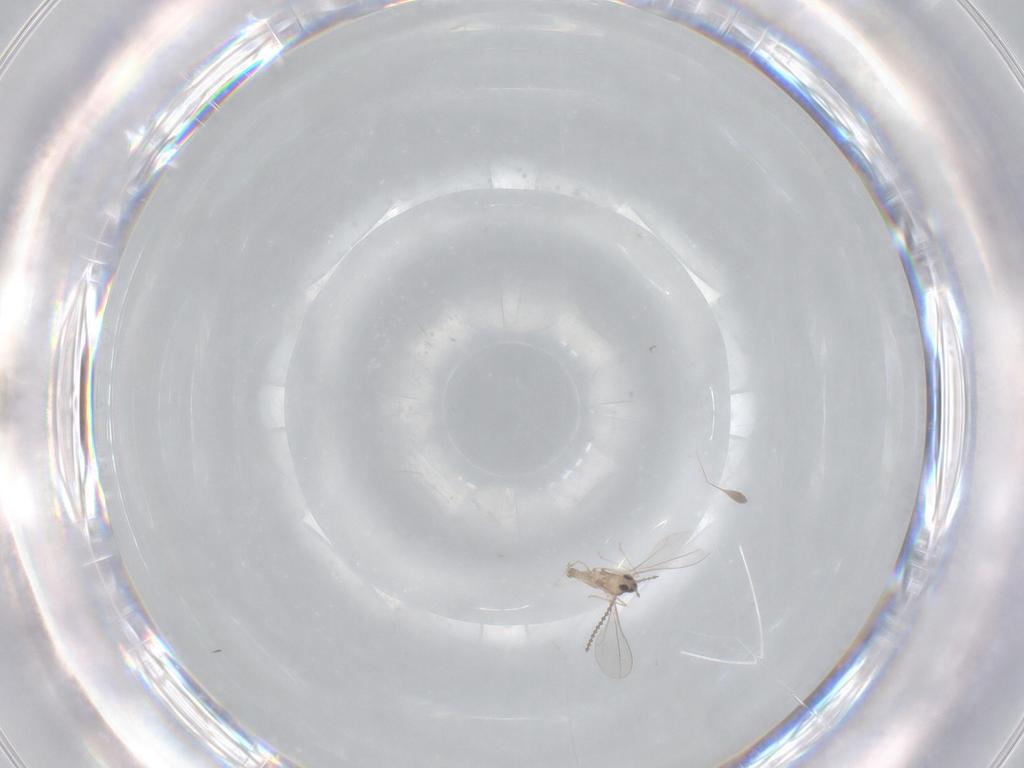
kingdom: Animalia
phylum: Arthropoda
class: Insecta
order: Diptera
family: Cecidomyiidae
